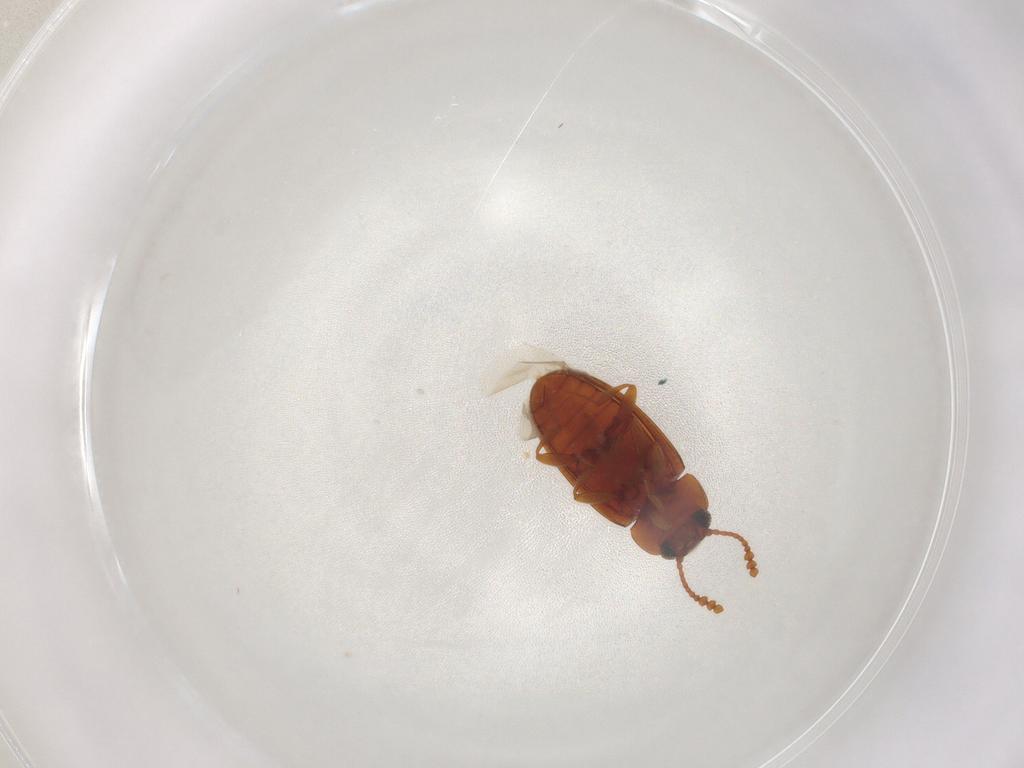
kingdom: Animalia
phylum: Arthropoda
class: Insecta
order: Coleoptera
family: Erotylidae
